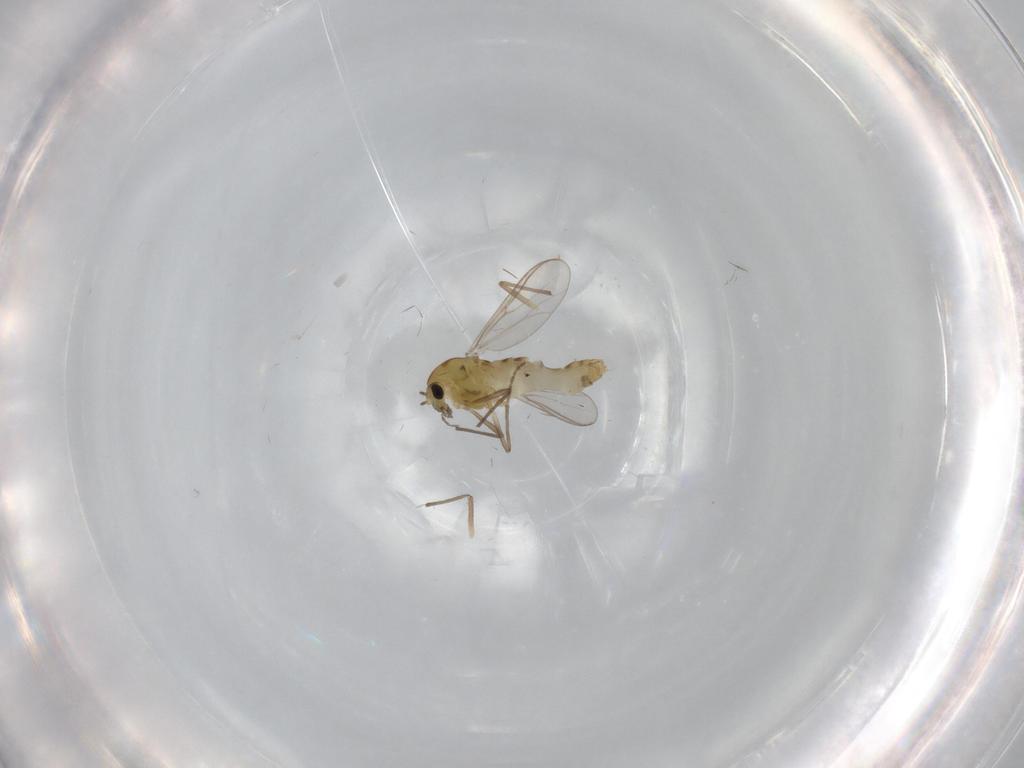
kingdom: Animalia
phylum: Arthropoda
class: Insecta
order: Diptera
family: Chironomidae
